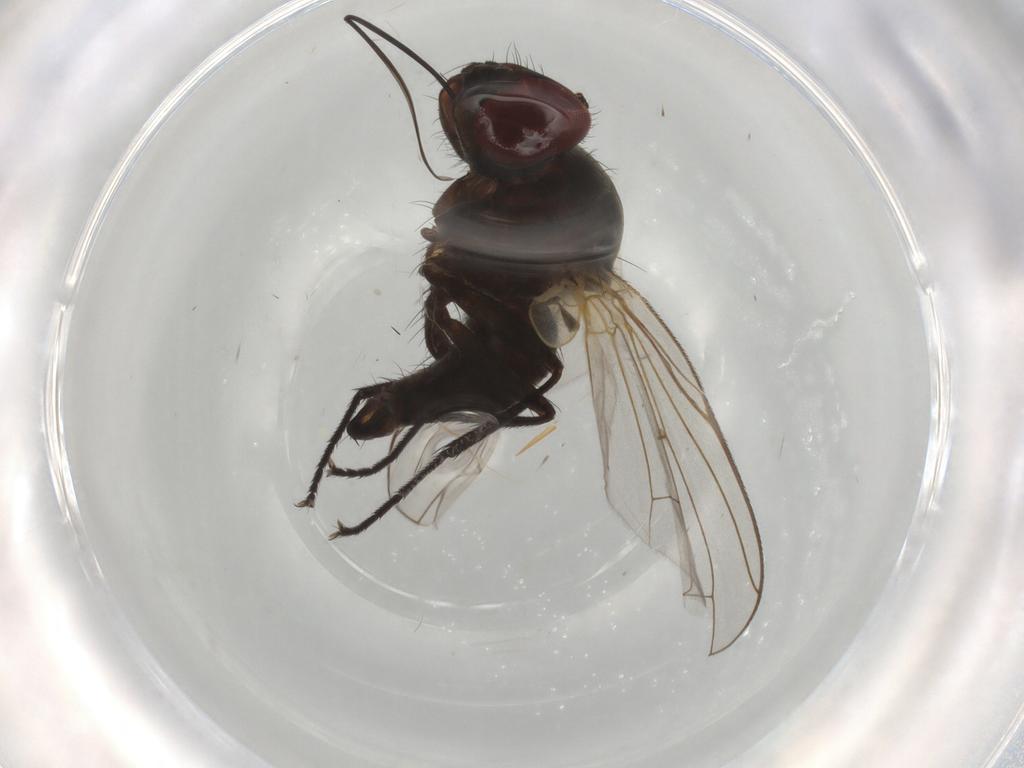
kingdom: Animalia
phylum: Arthropoda
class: Insecta
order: Diptera
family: Tachinidae
